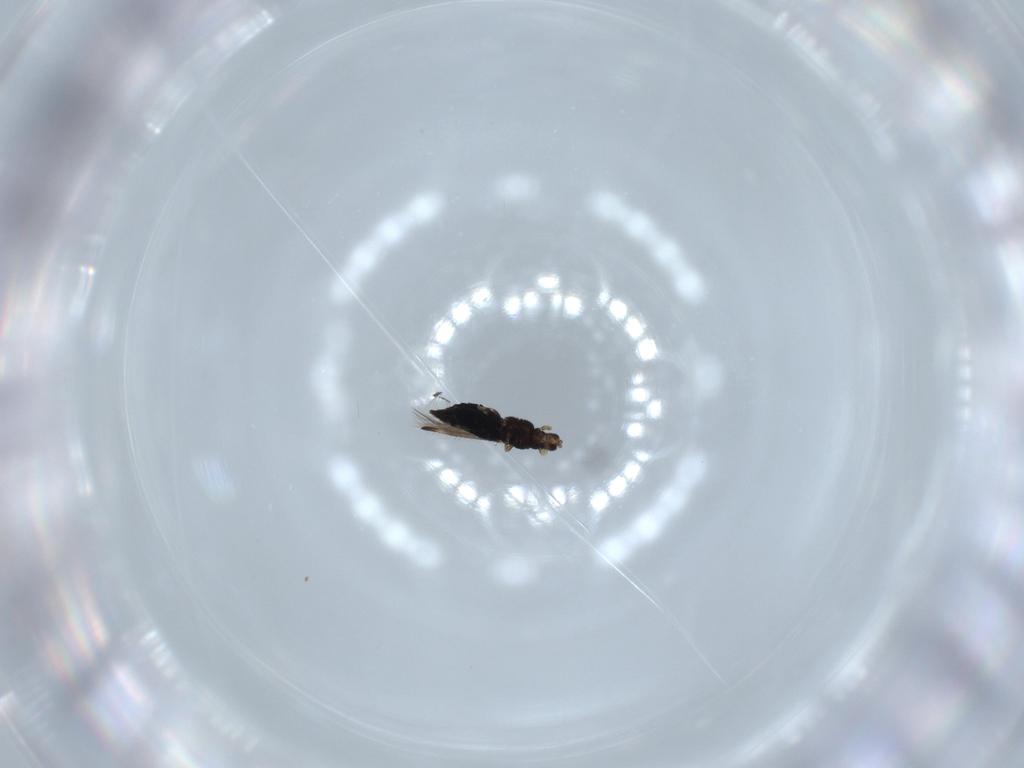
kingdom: Animalia
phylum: Arthropoda
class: Insecta
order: Thysanoptera
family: Thripidae
